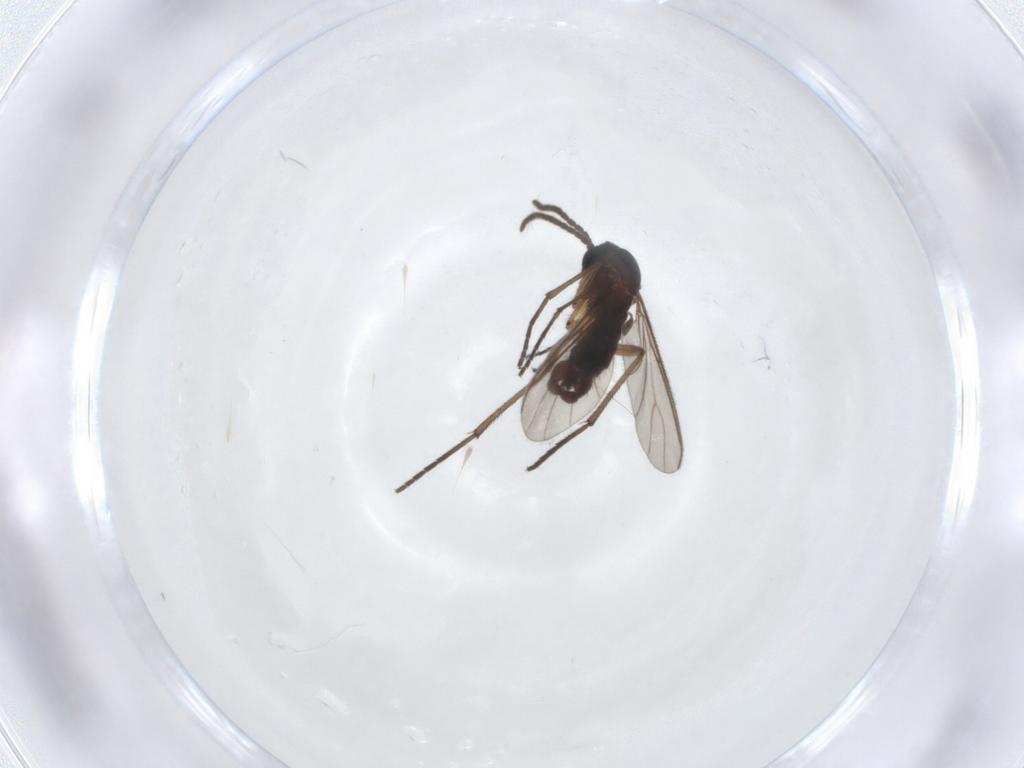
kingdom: Animalia
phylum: Arthropoda
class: Insecta
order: Diptera
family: Sciaridae
